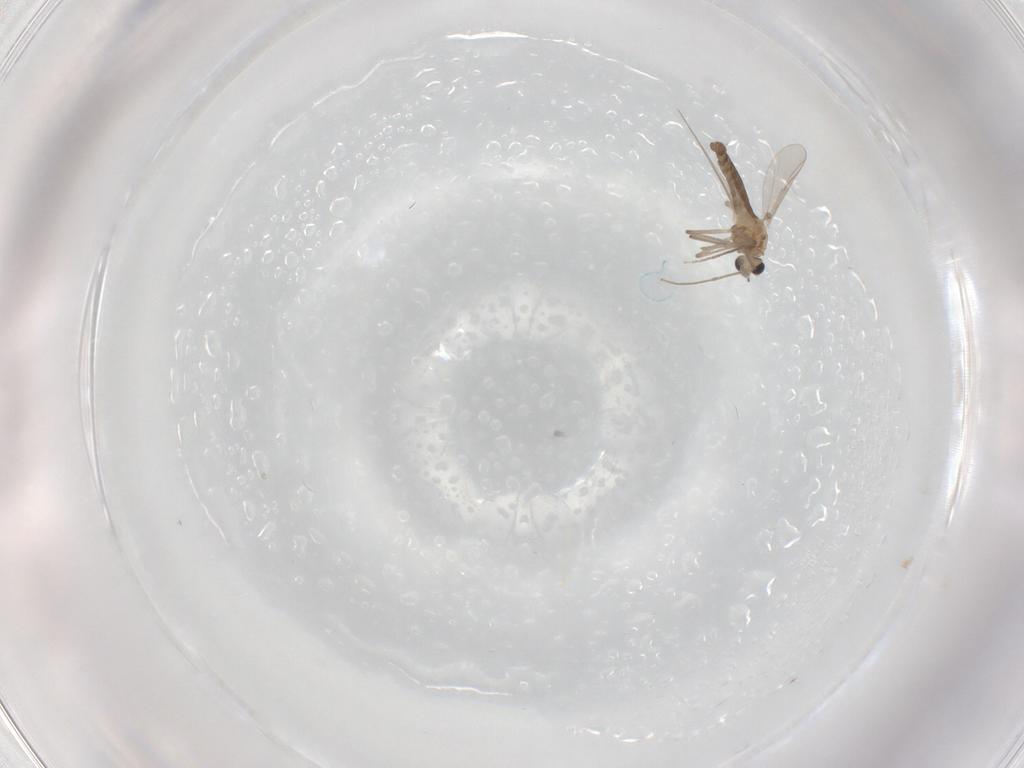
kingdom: Animalia
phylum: Arthropoda
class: Insecta
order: Diptera
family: Chironomidae
